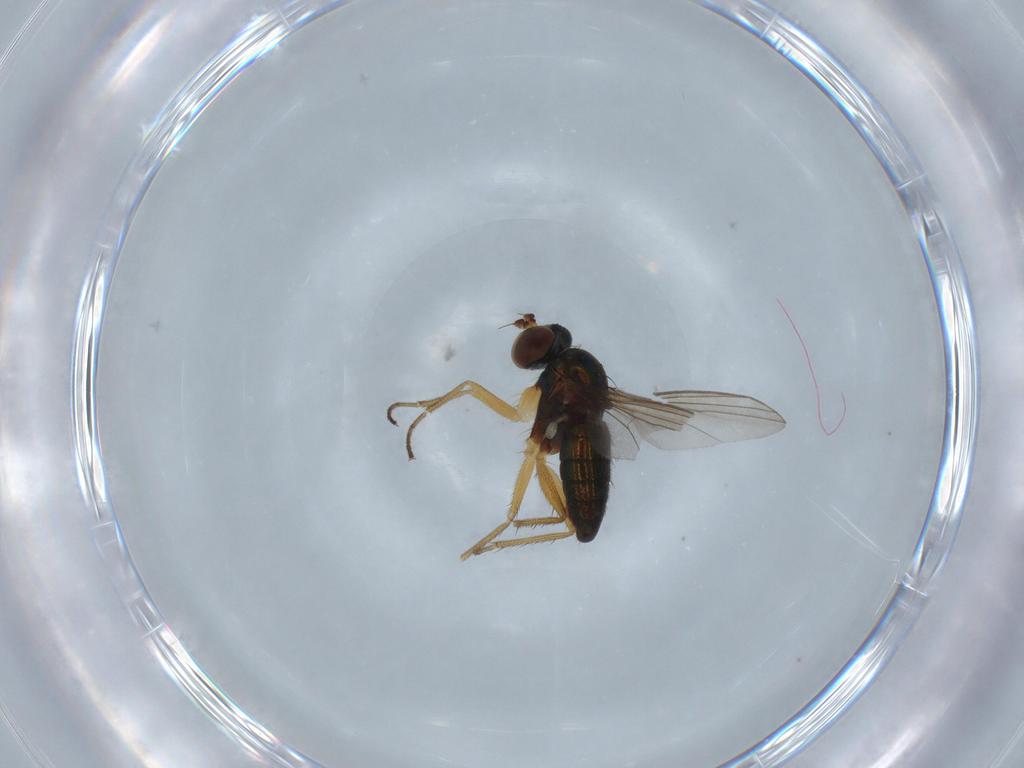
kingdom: Animalia
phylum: Arthropoda
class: Insecta
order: Diptera
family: Cecidomyiidae
